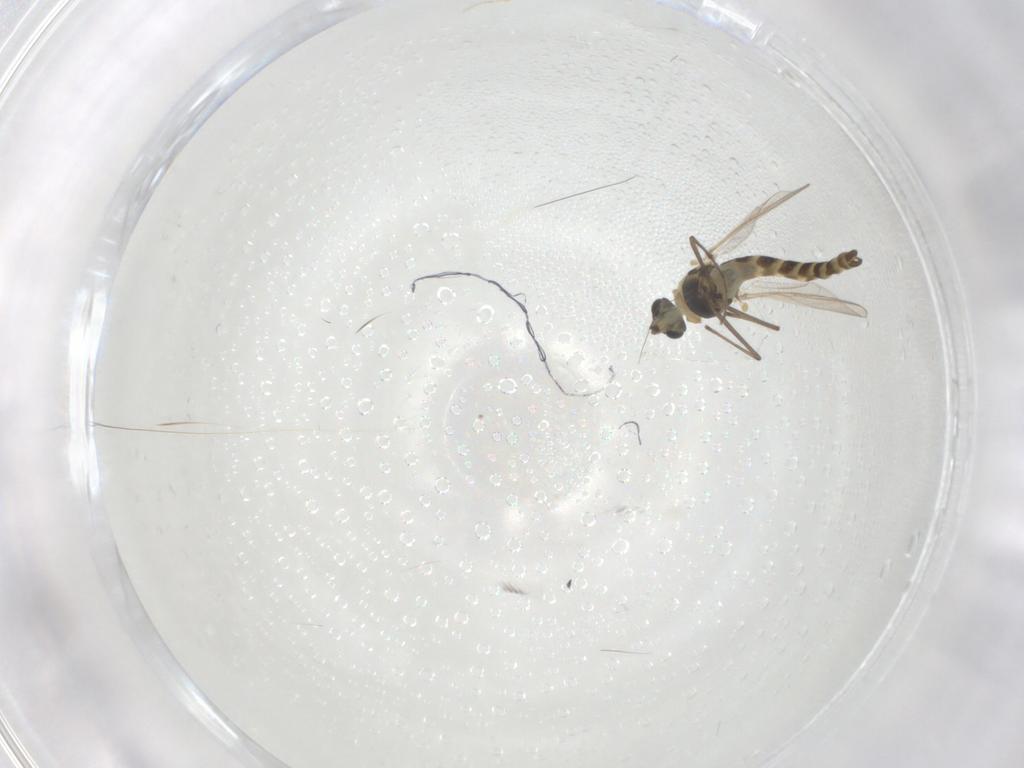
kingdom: Animalia
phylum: Arthropoda
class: Insecta
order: Diptera
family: Chironomidae
